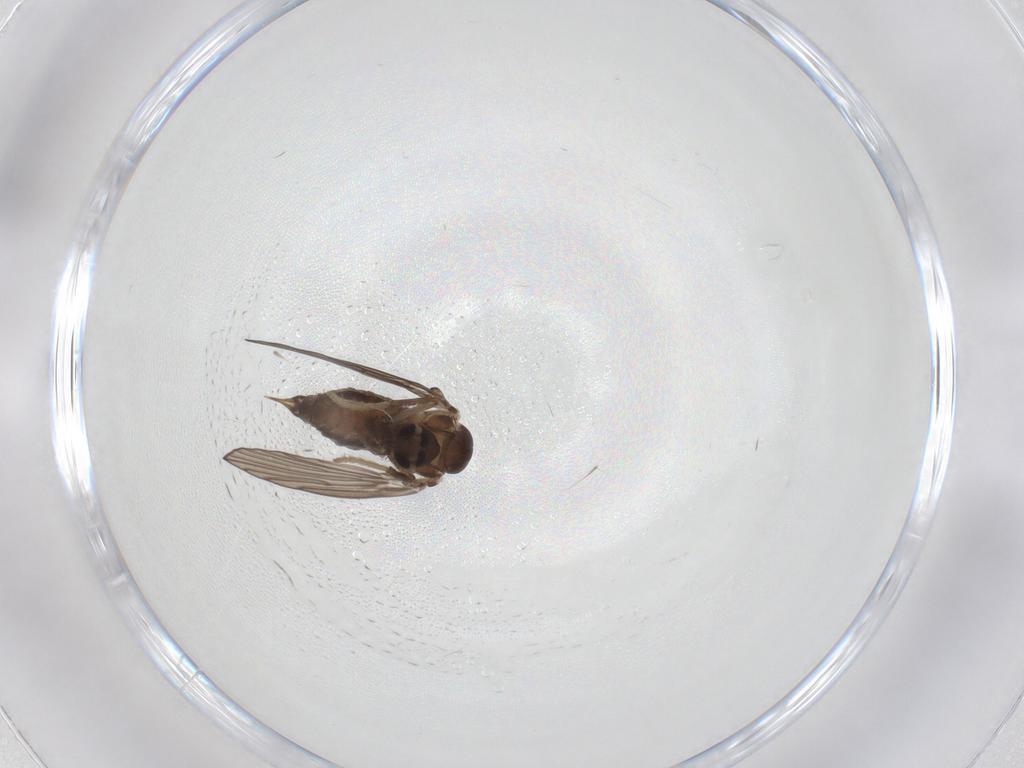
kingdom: Animalia
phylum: Arthropoda
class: Insecta
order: Diptera
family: Psychodidae
